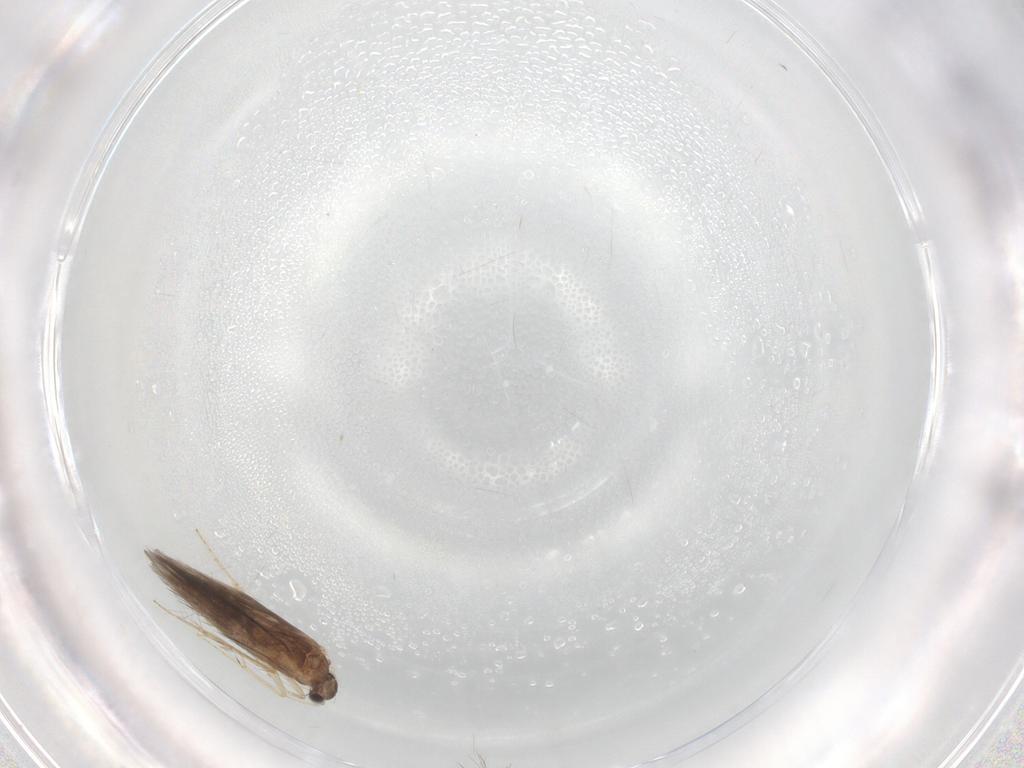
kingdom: Animalia
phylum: Arthropoda
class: Insecta
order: Trichoptera
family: Hydroptilidae
